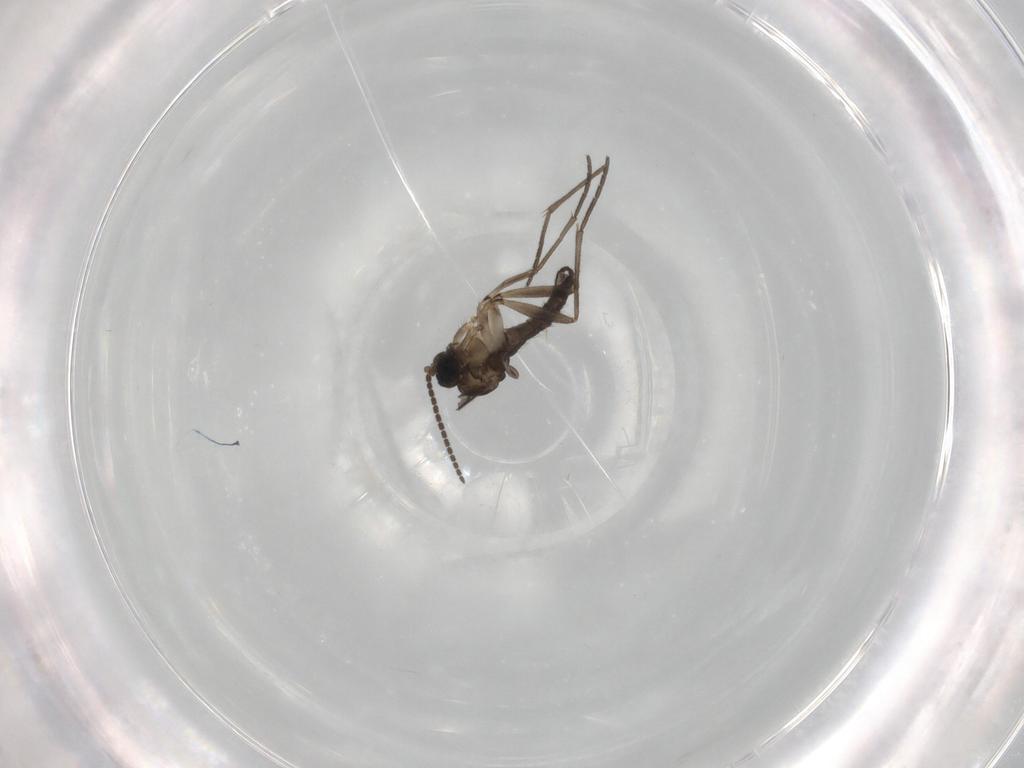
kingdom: Animalia
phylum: Arthropoda
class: Insecta
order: Diptera
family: Sciaridae
